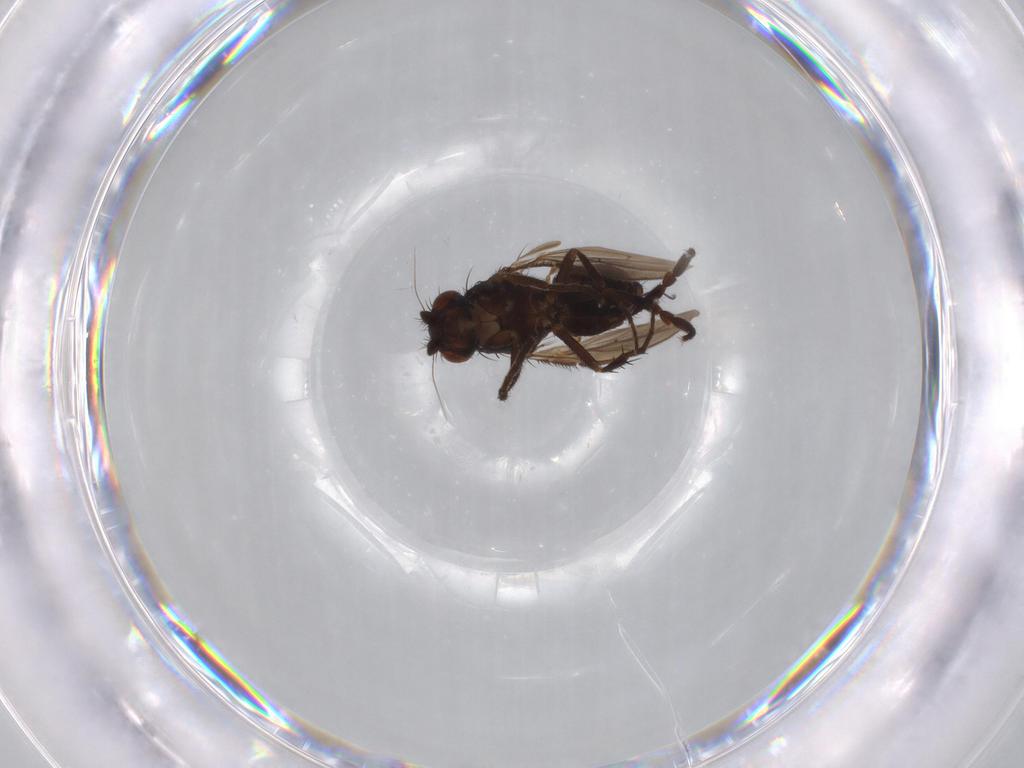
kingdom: Animalia
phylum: Arthropoda
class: Insecta
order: Diptera
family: Sphaeroceridae
